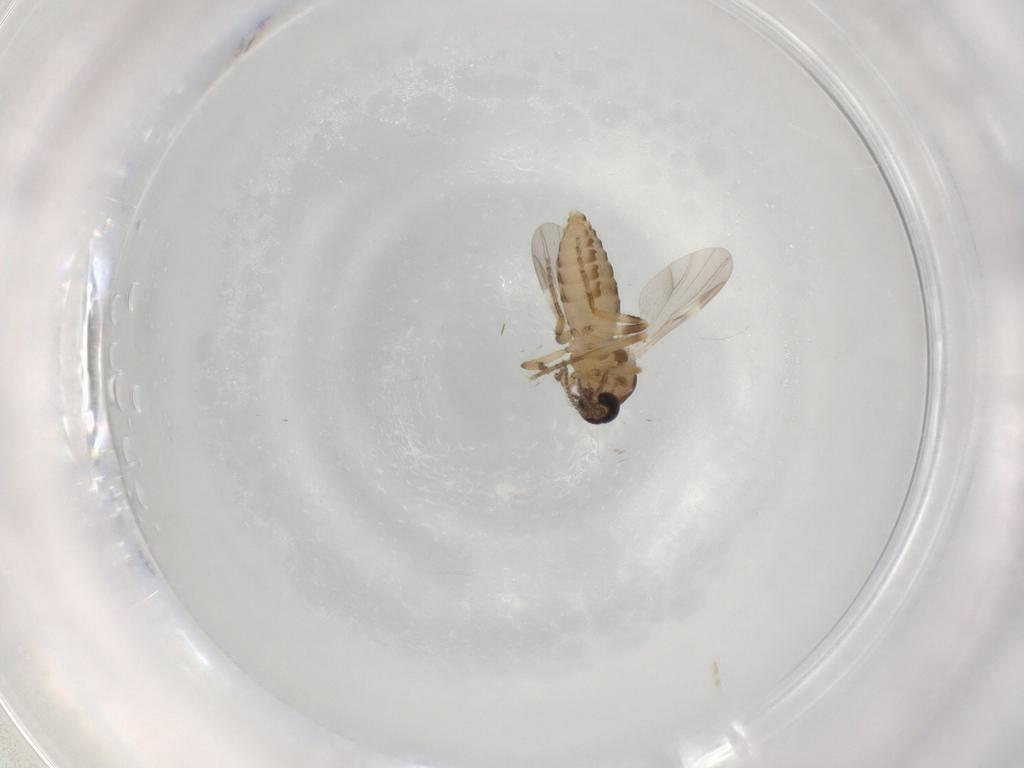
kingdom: Animalia
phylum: Arthropoda
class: Insecta
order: Diptera
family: Ceratopogonidae
